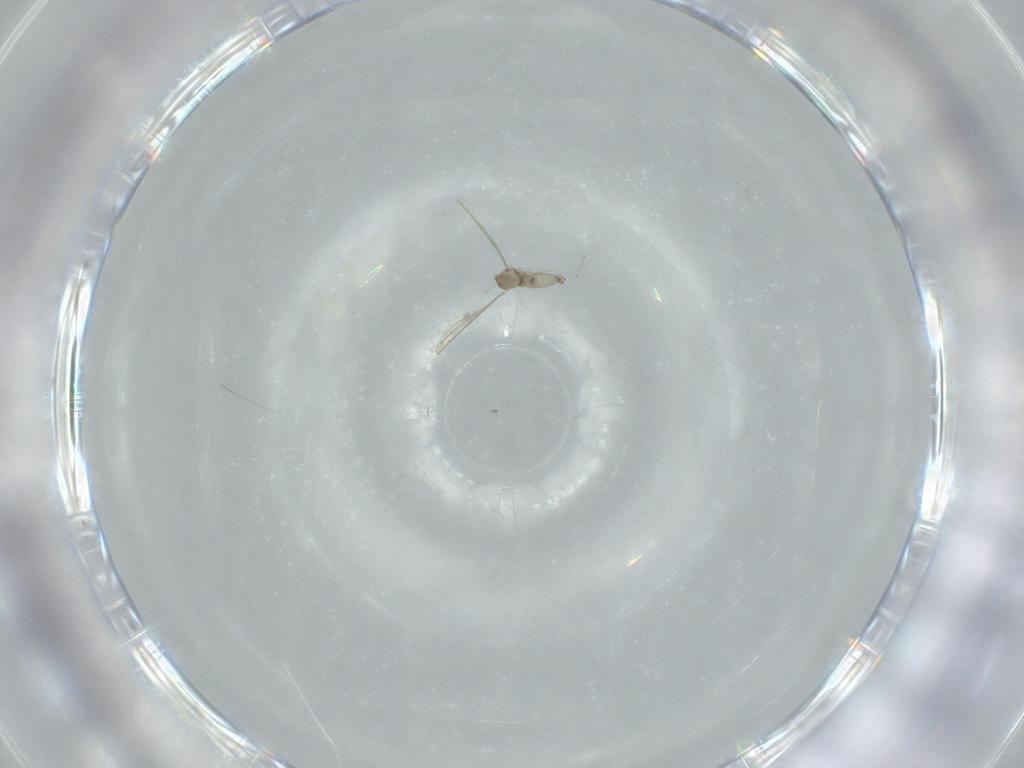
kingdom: Animalia
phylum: Arthropoda
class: Insecta
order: Diptera
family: Cecidomyiidae
